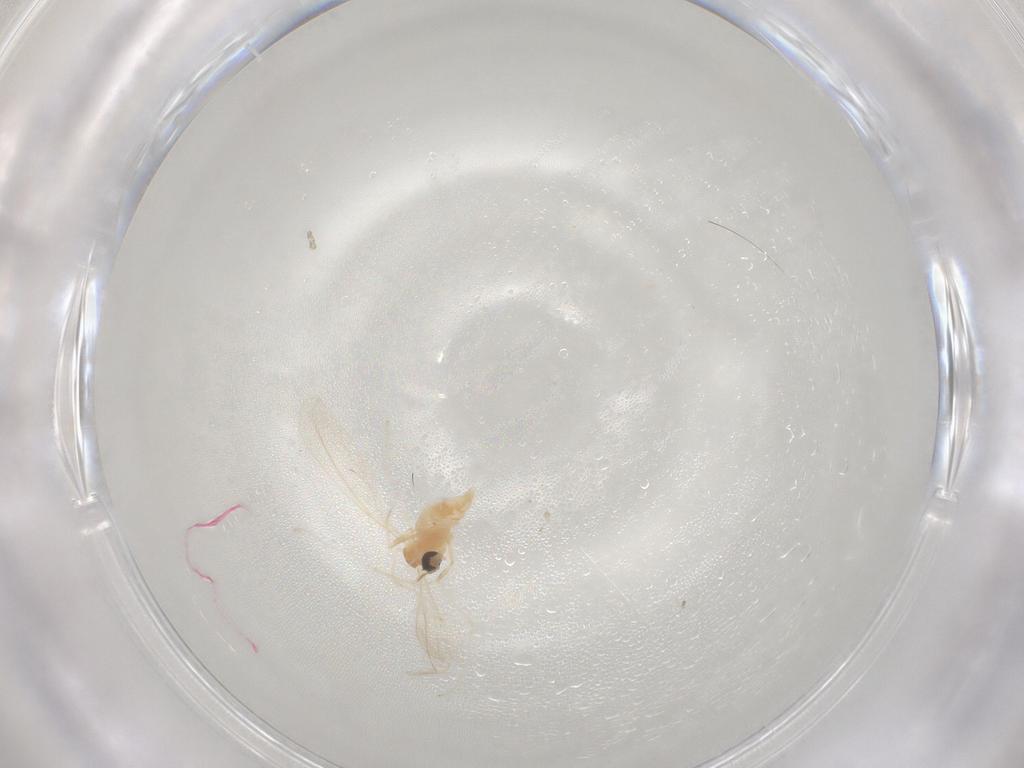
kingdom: Animalia
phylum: Arthropoda
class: Insecta
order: Diptera
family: Cecidomyiidae
